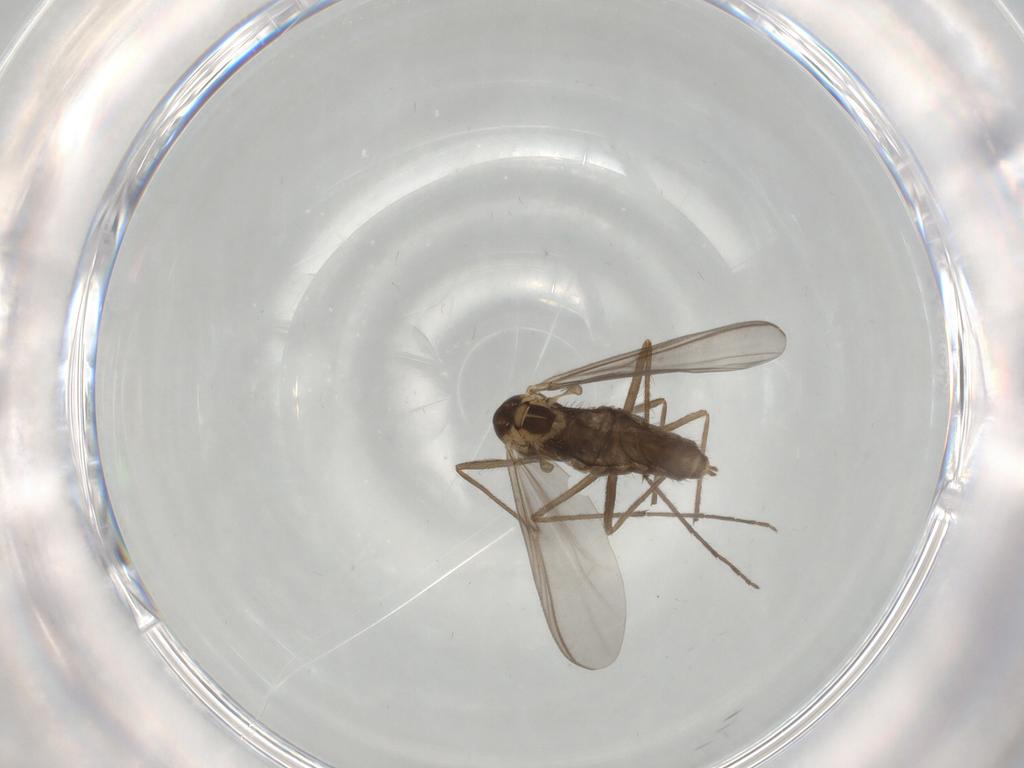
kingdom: Animalia
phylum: Arthropoda
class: Insecta
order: Diptera
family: Chironomidae
